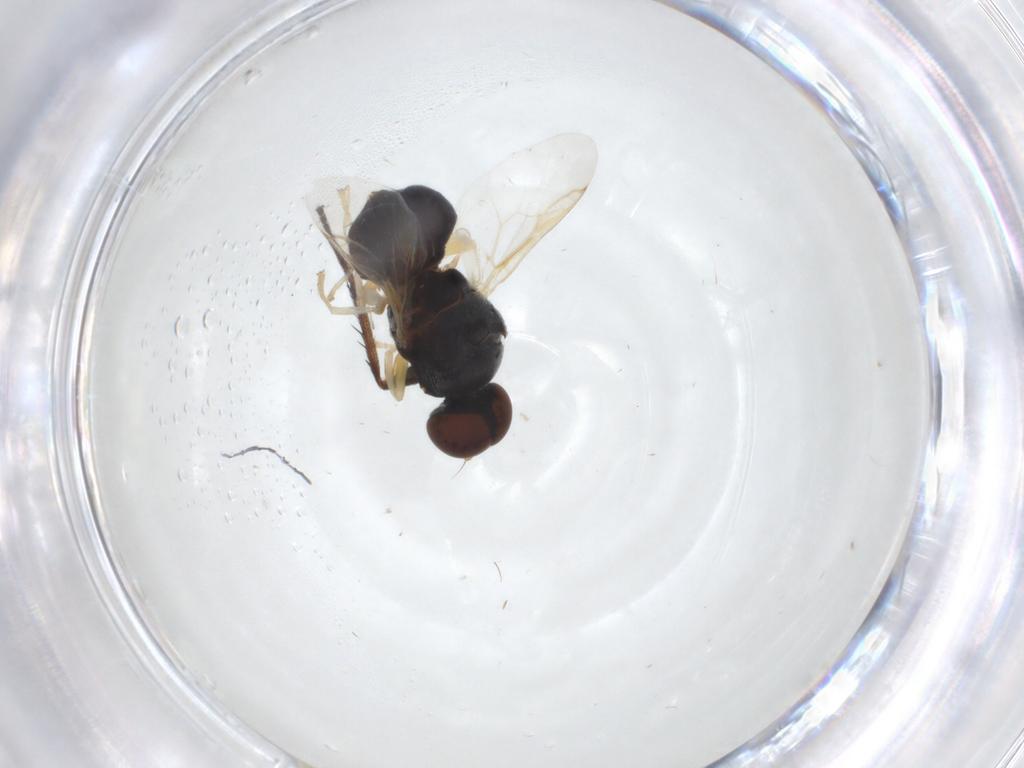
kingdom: Animalia
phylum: Arthropoda
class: Insecta
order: Diptera
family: Stratiomyidae
